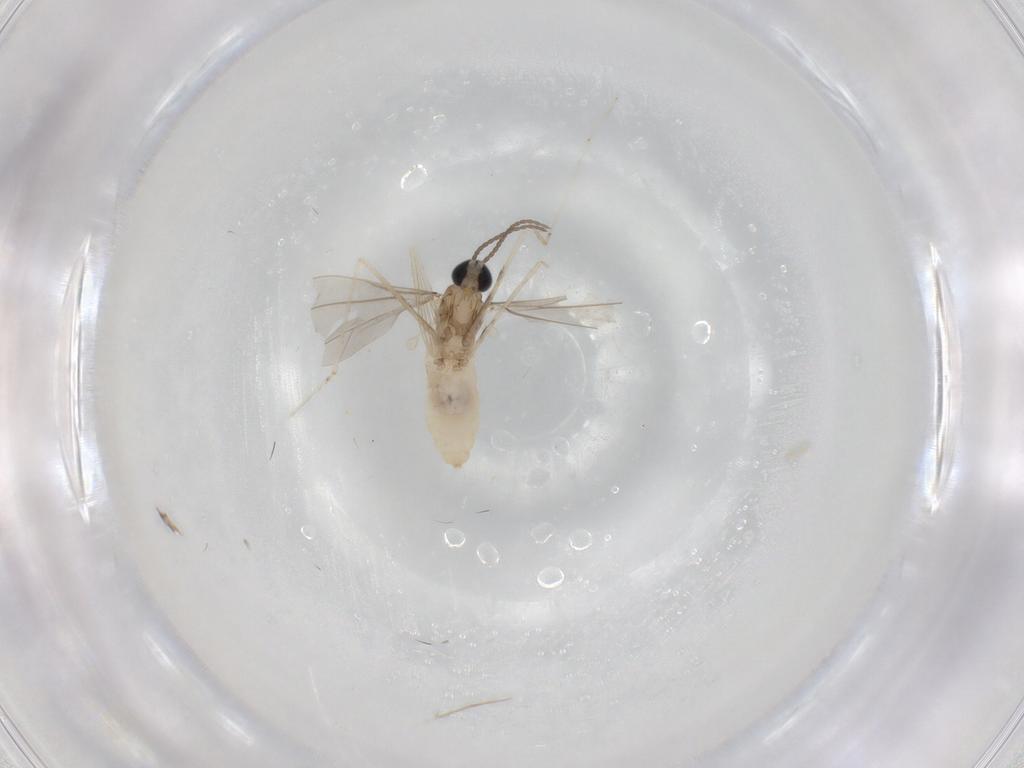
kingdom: Animalia
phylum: Arthropoda
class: Insecta
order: Diptera
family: Cecidomyiidae
